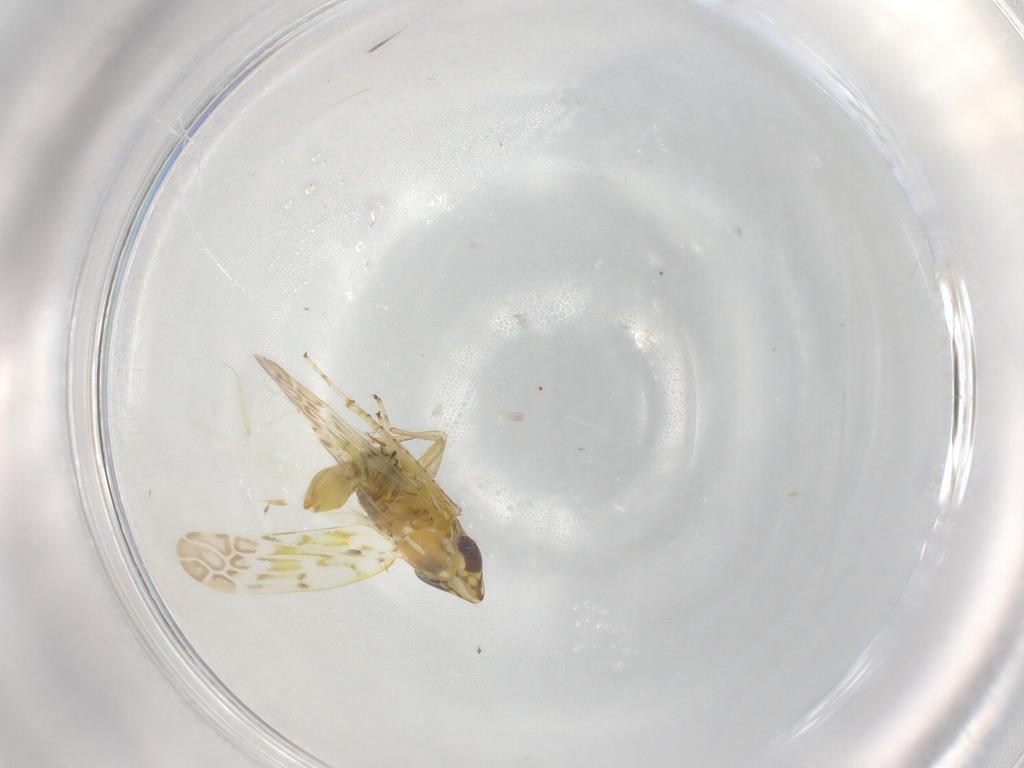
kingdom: Animalia
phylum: Arthropoda
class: Insecta
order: Hemiptera
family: Cicadellidae
